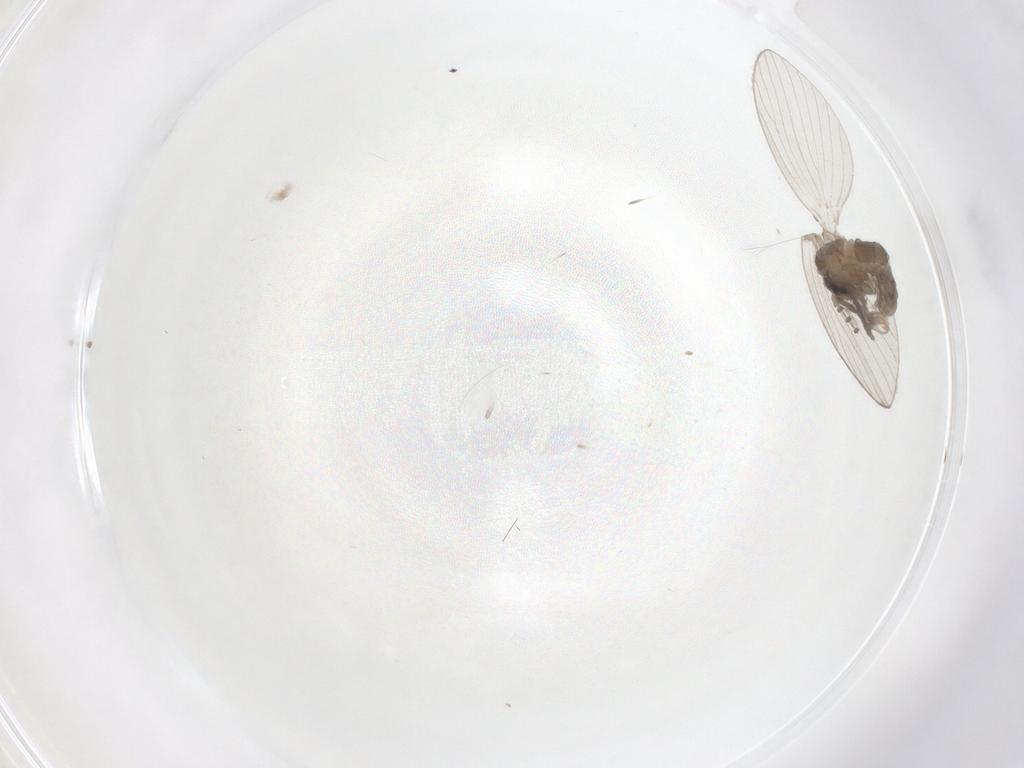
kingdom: Animalia
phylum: Arthropoda
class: Insecta
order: Diptera
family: Psychodidae
